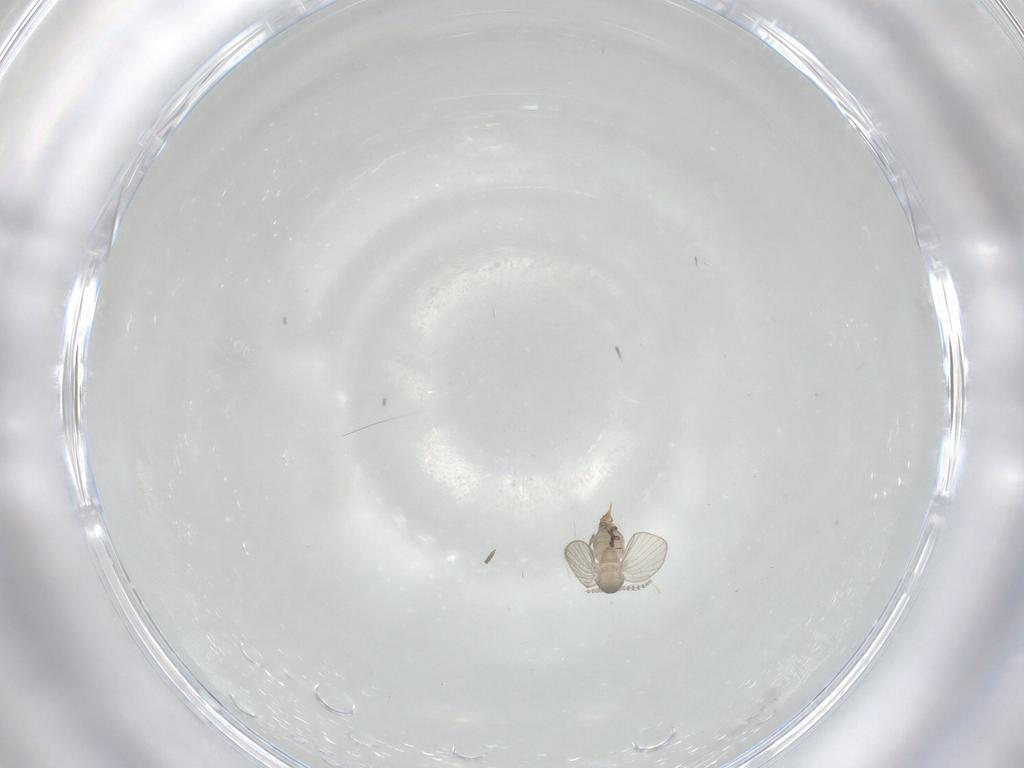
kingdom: Animalia
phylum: Arthropoda
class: Insecta
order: Diptera
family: Psychodidae
